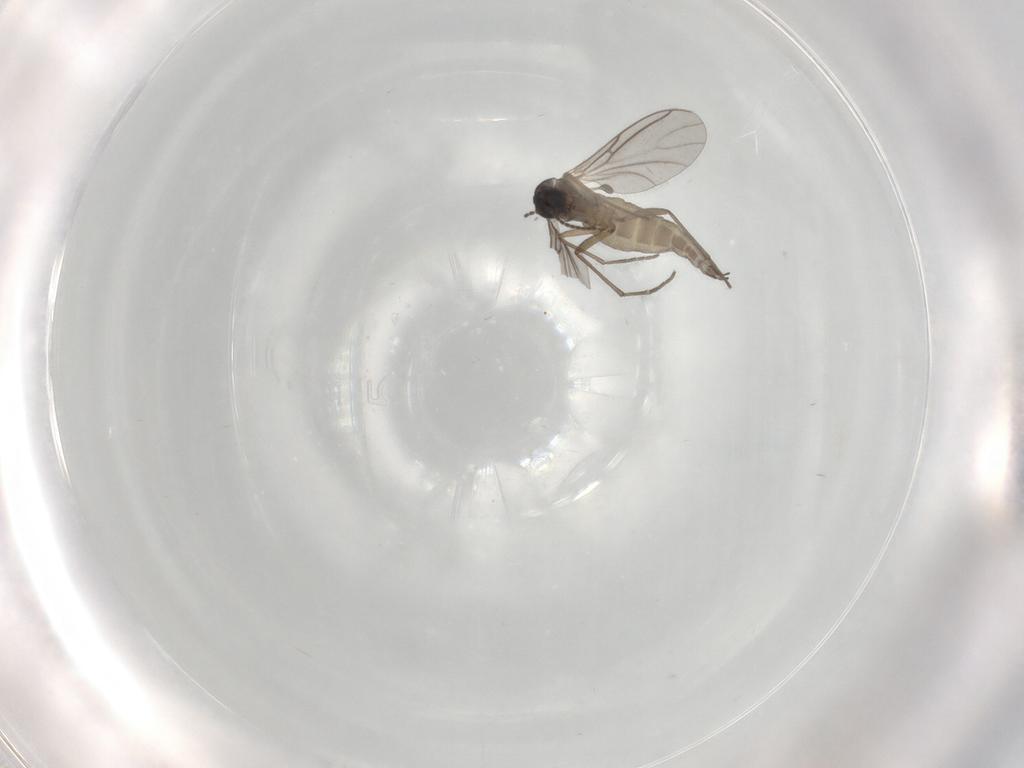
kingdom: Animalia
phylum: Arthropoda
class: Insecta
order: Diptera
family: Sciaridae
